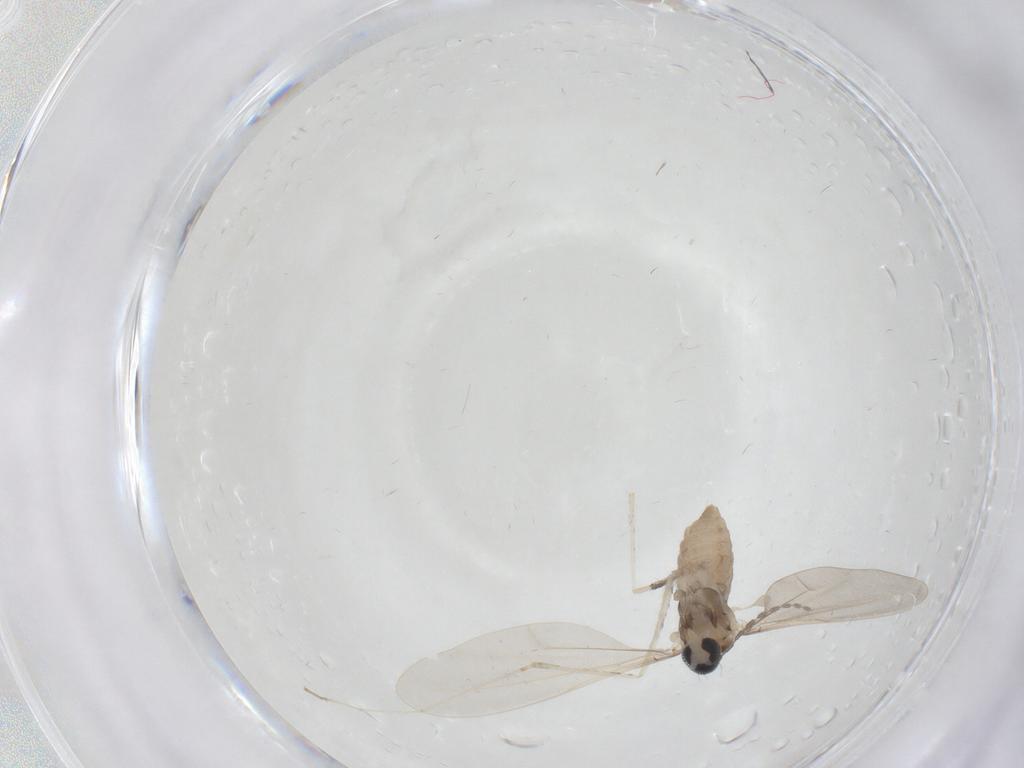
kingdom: Animalia
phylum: Arthropoda
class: Insecta
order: Diptera
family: Cecidomyiidae
